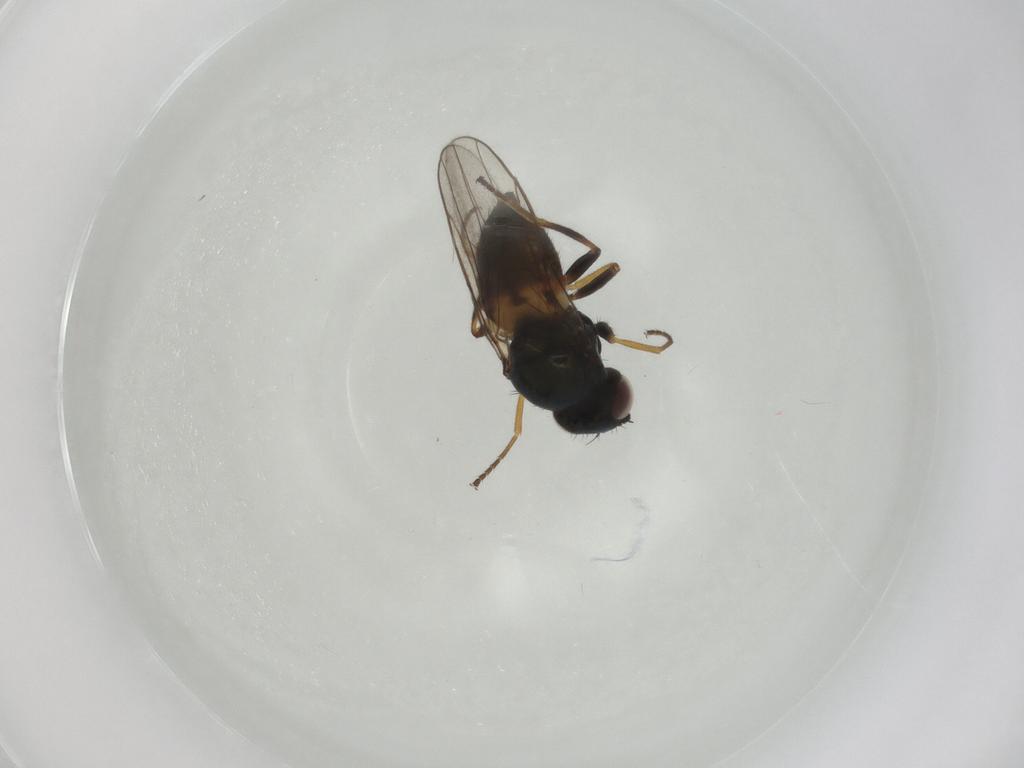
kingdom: Animalia
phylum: Arthropoda
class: Insecta
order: Diptera
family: Chloropidae
